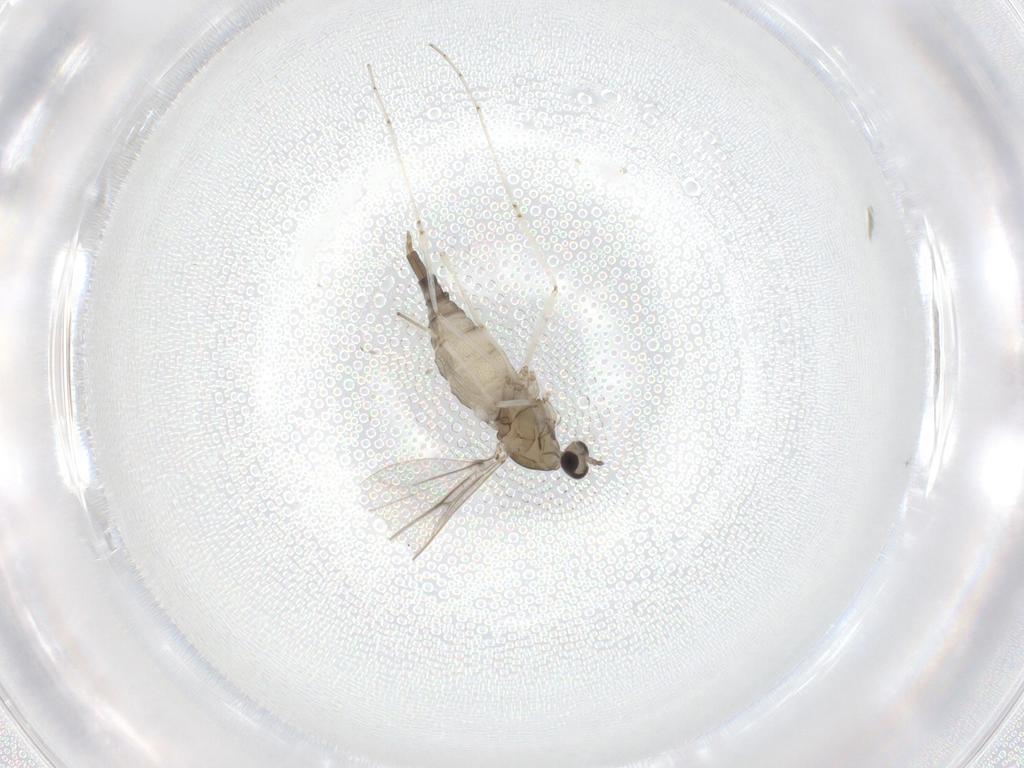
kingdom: Animalia
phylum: Arthropoda
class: Insecta
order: Diptera
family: Cecidomyiidae
